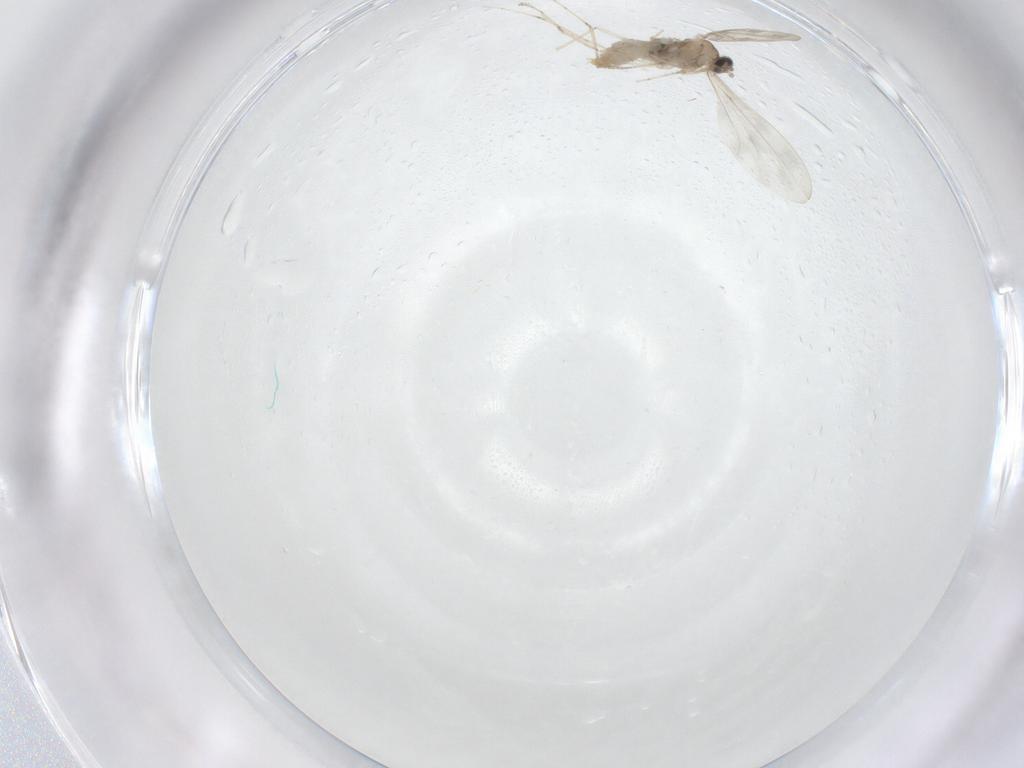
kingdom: Animalia
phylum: Arthropoda
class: Insecta
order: Diptera
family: Cecidomyiidae
